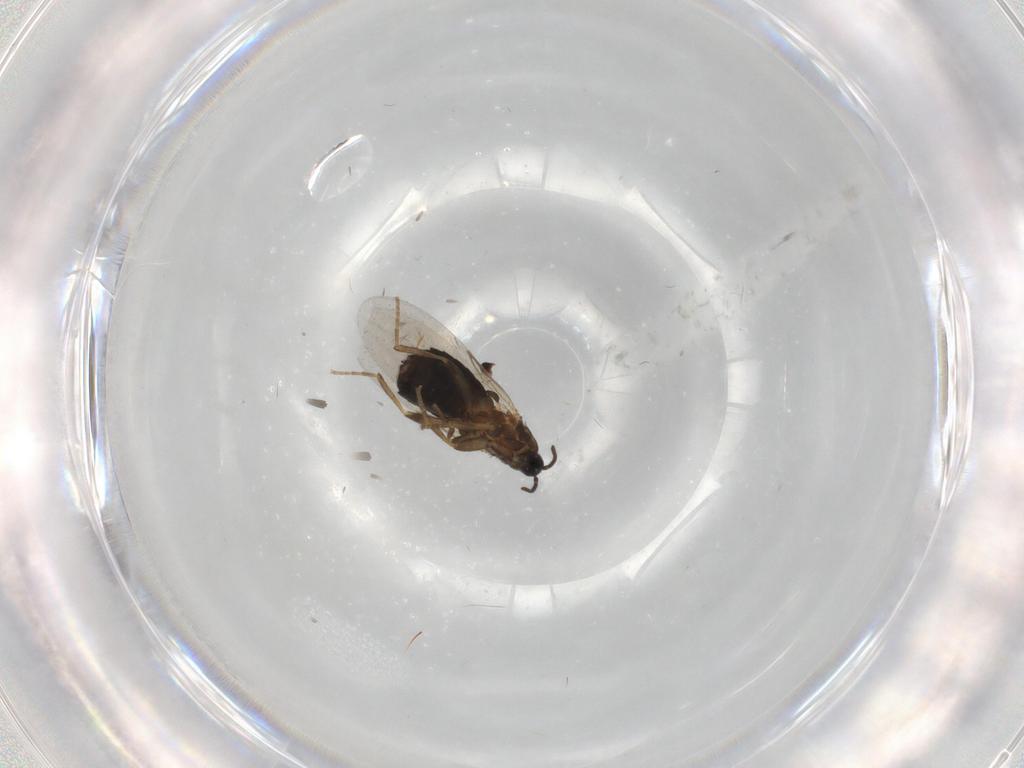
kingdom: Animalia
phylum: Arthropoda
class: Insecta
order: Diptera
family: Scatopsidae
